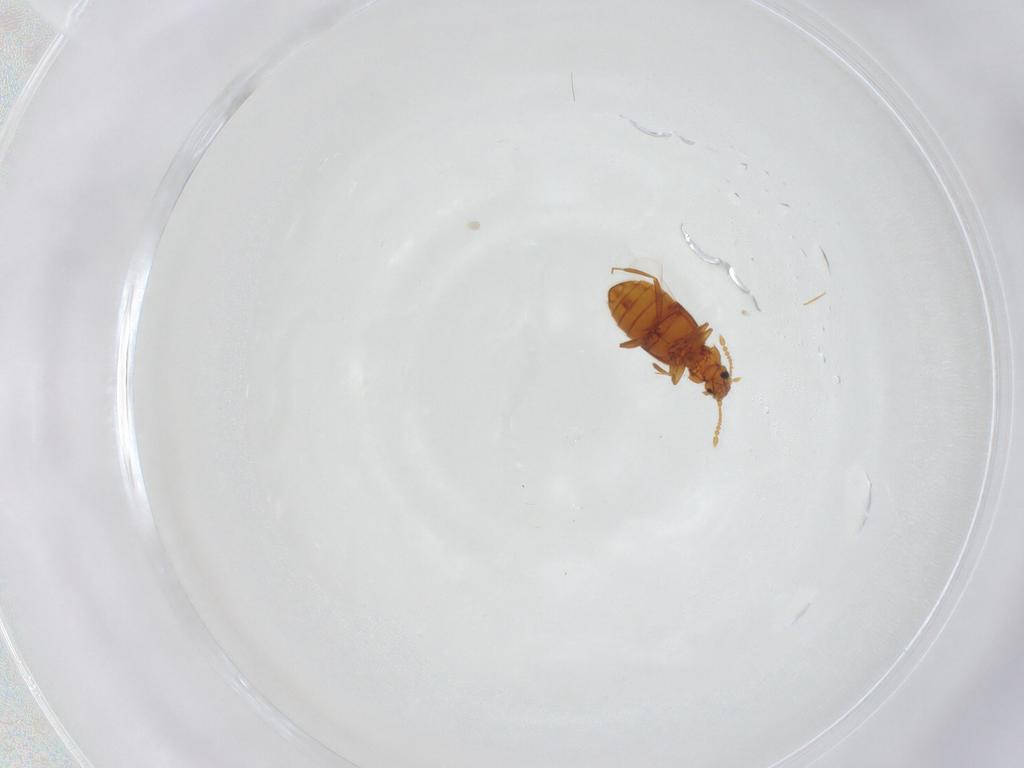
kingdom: Animalia
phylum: Arthropoda
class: Insecta
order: Coleoptera
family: Staphylinidae
